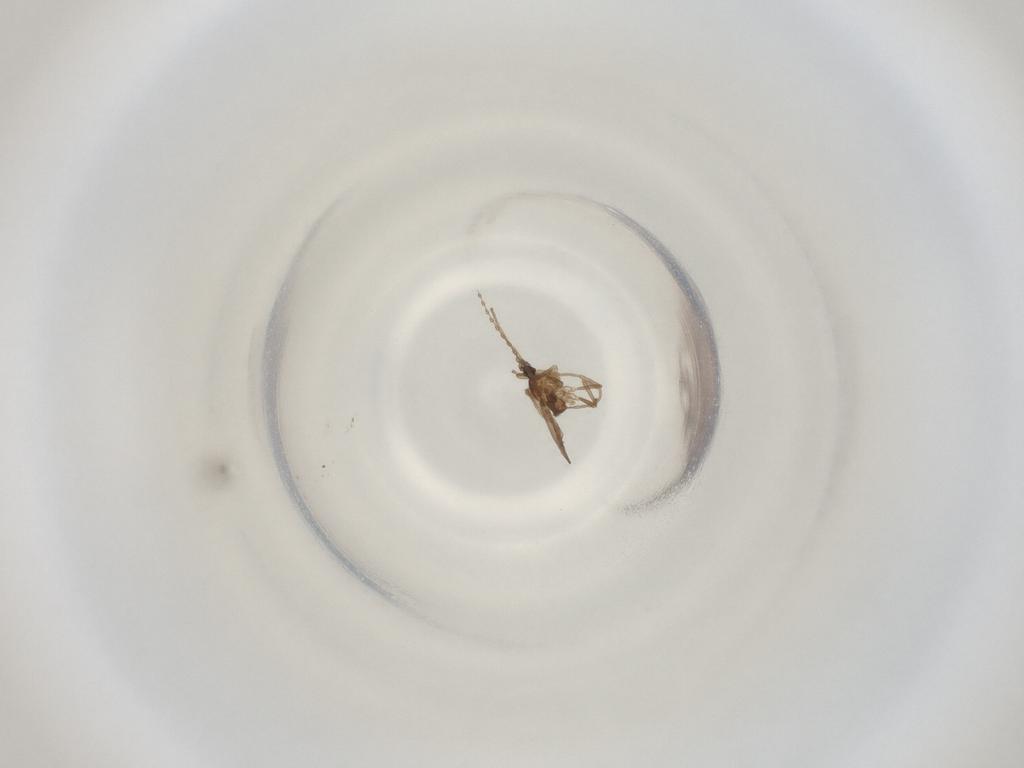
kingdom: Animalia
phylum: Arthropoda
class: Insecta
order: Diptera
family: Cecidomyiidae
